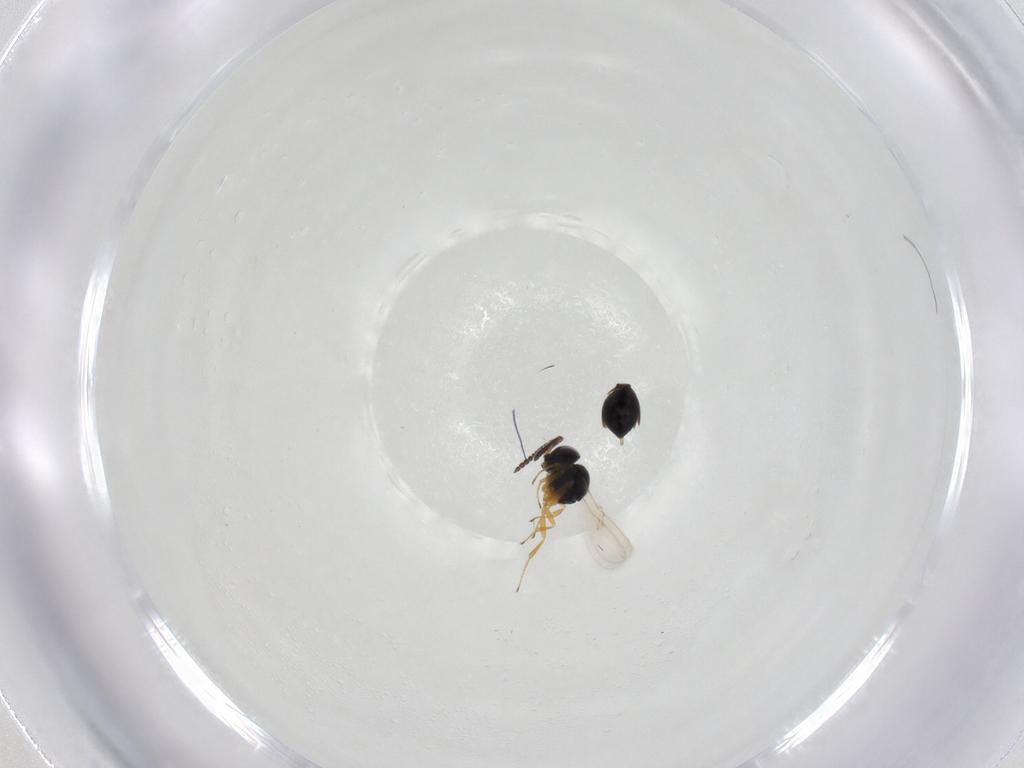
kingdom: Animalia
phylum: Arthropoda
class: Insecta
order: Hymenoptera
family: Scelionidae
